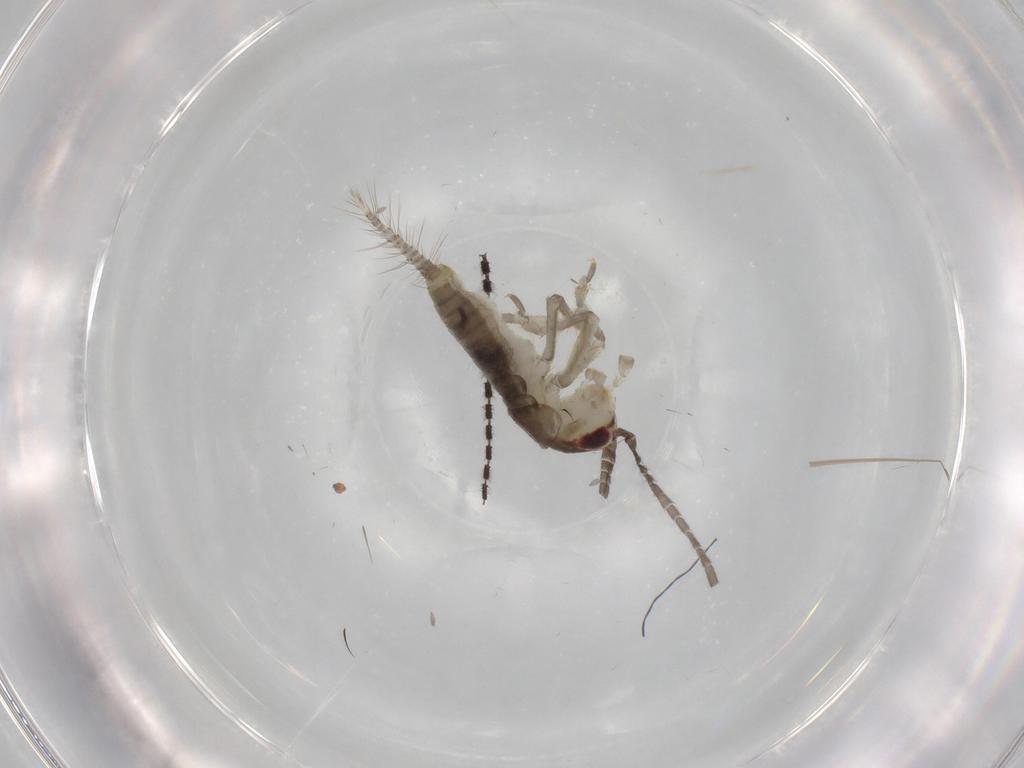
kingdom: Animalia
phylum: Arthropoda
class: Insecta
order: Orthoptera
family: Gryllidae
